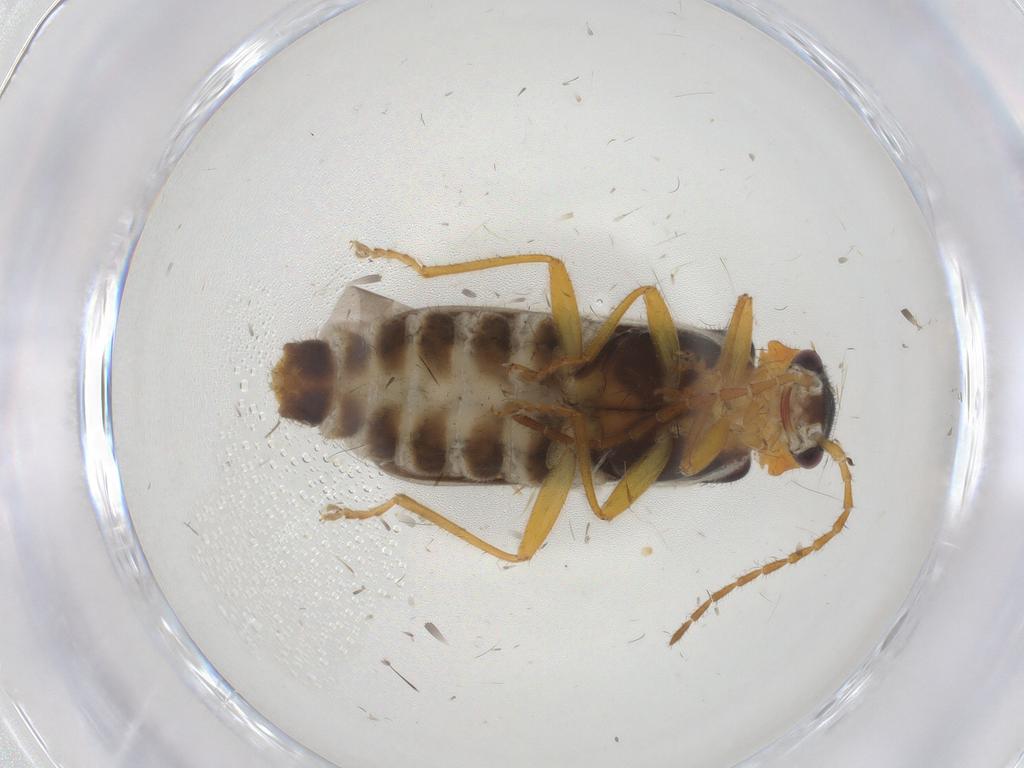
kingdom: Animalia
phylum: Arthropoda
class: Insecta
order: Coleoptera
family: Cantharidae
